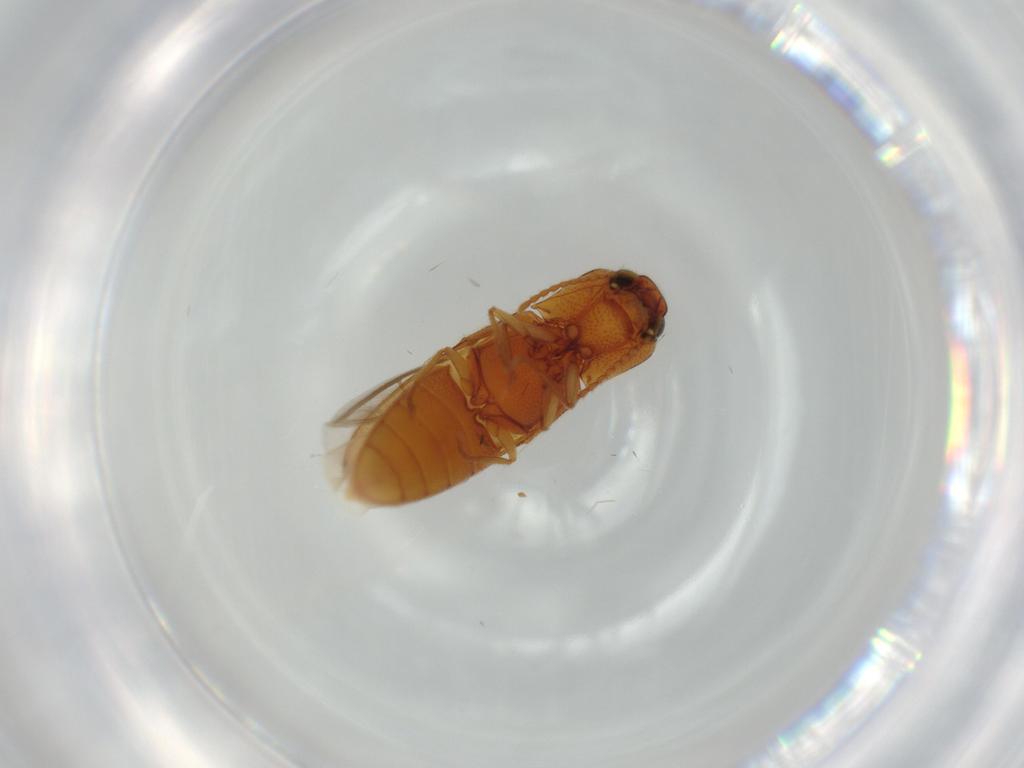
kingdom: Animalia
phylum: Arthropoda
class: Insecta
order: Coleoptera
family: Elateridae
